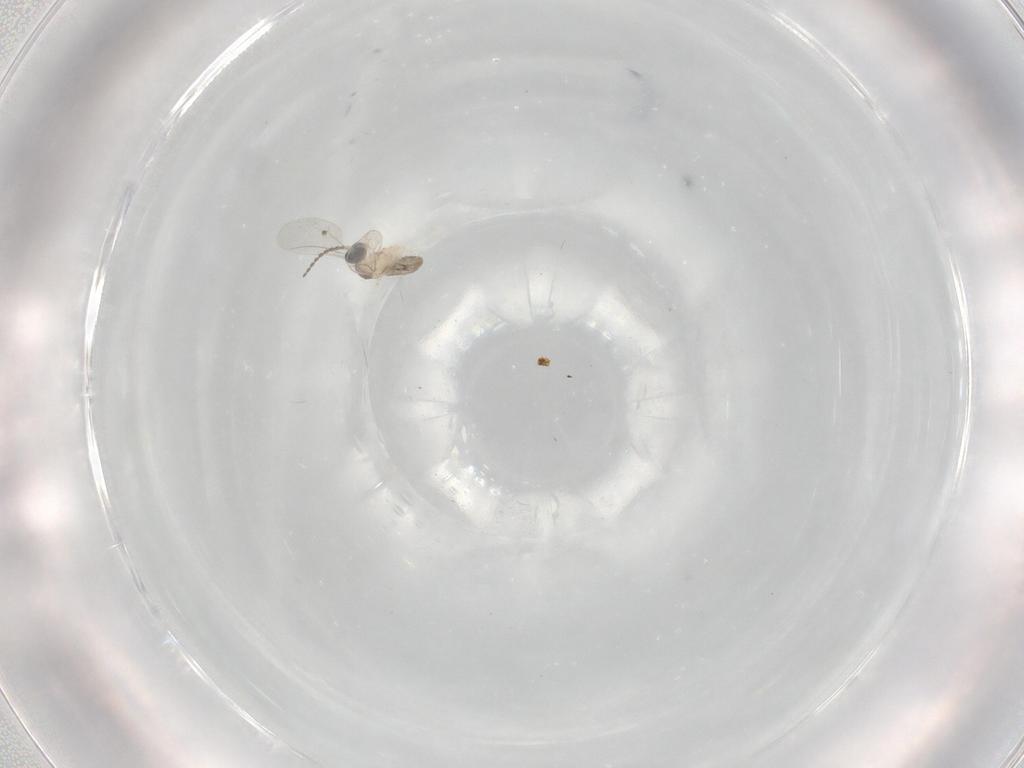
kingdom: Animalia
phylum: Arthropoda
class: Insecta
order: Diptera
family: Cecidomyiidae
